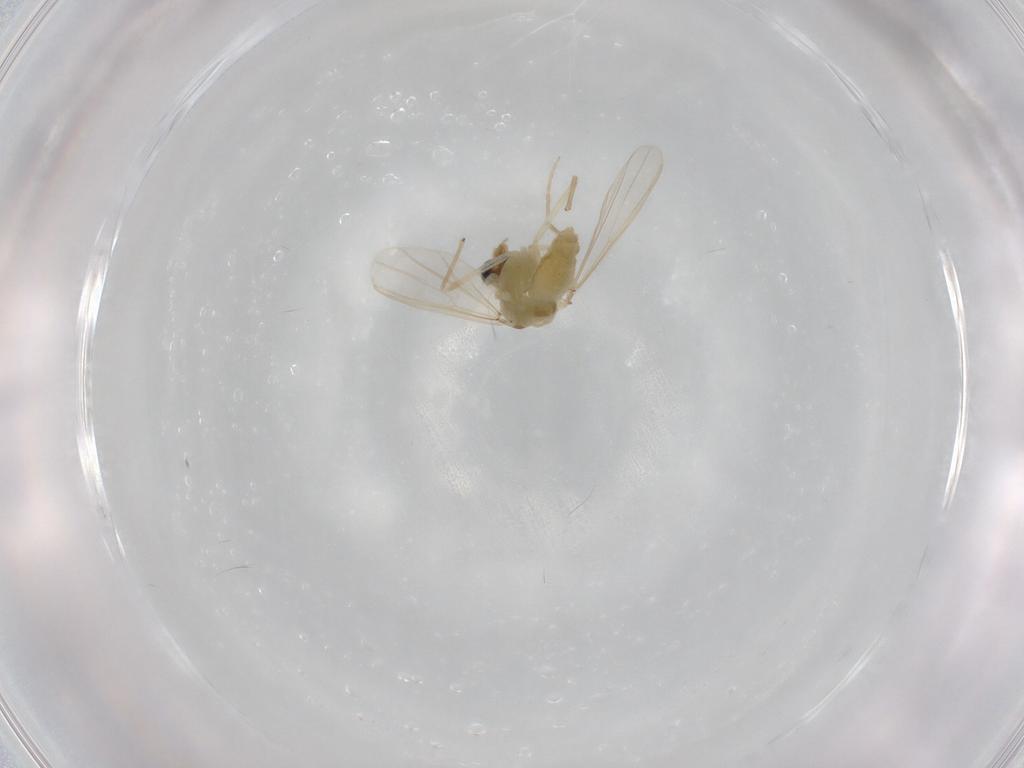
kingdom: Animalia
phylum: Arthropoda
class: Insecta
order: Diptera
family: Chironomidae
